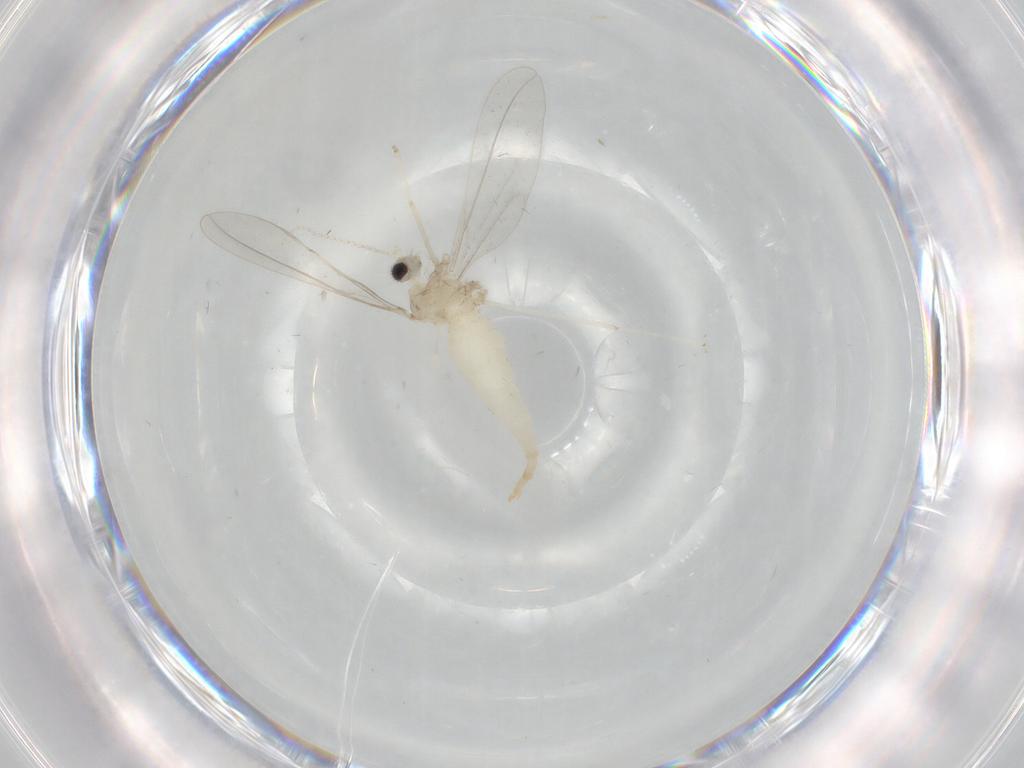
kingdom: Animalia
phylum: Arthropoda
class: Insecta
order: Diptera
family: Cecidomyiidae
